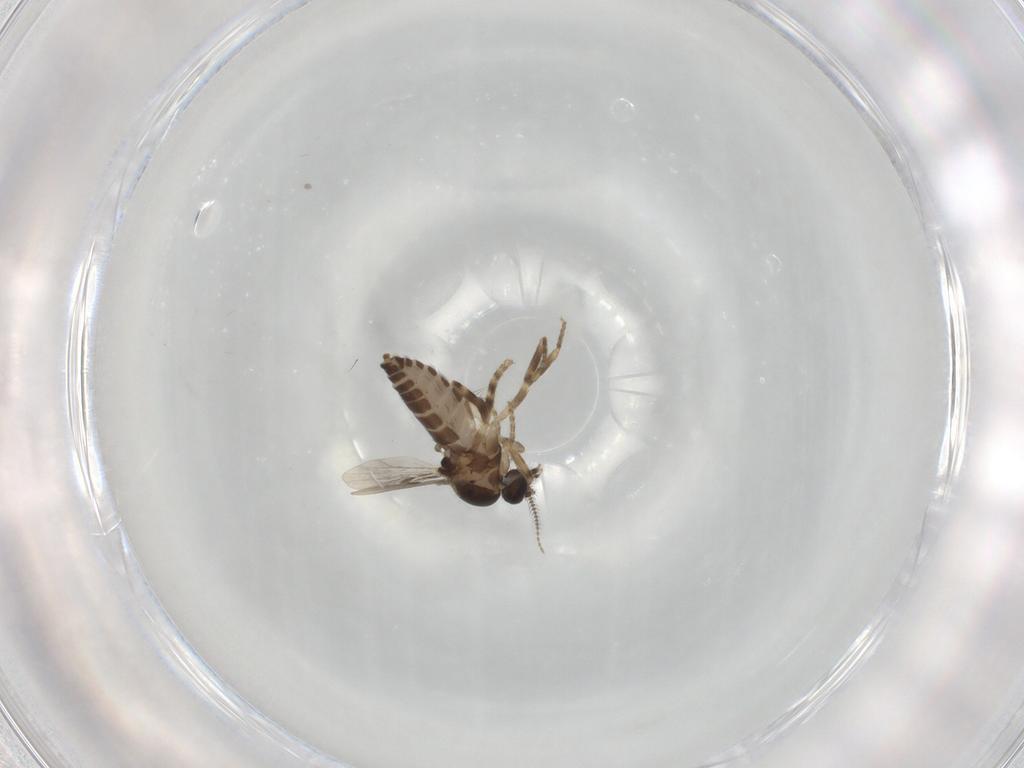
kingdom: Animalia
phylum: Arthropoda
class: Insecta
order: Diptera
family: Ceratopogonidae
